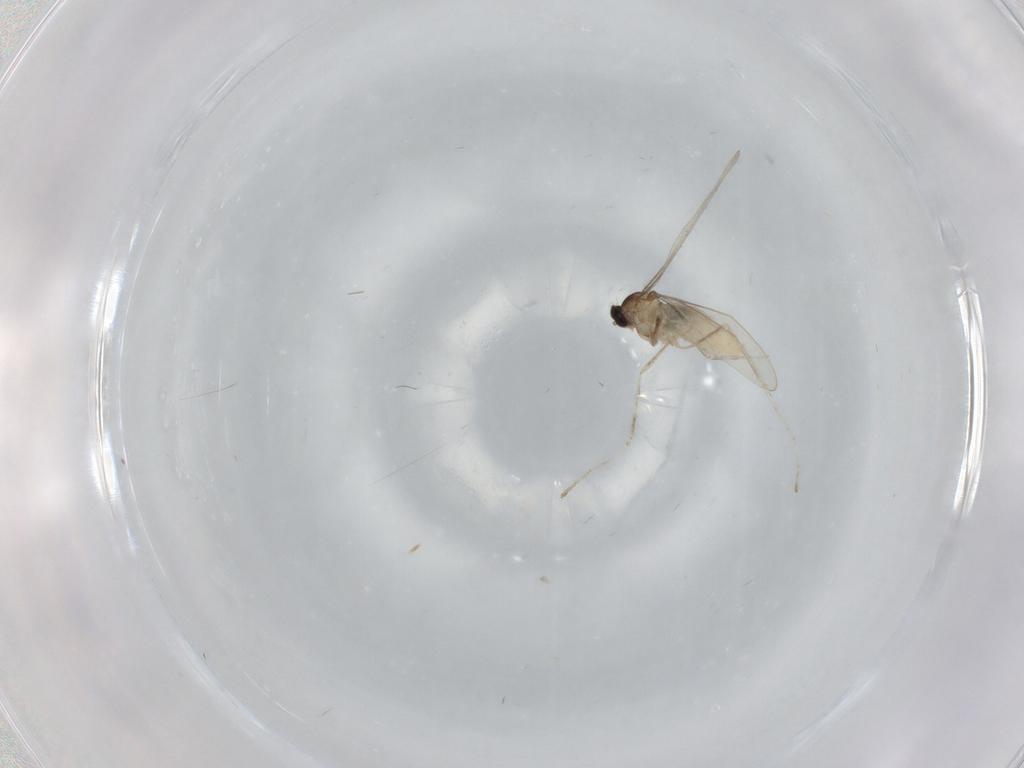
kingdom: Animalia
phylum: Arthropoda
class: Insecta
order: Diptera
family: Cecidomyiidae
